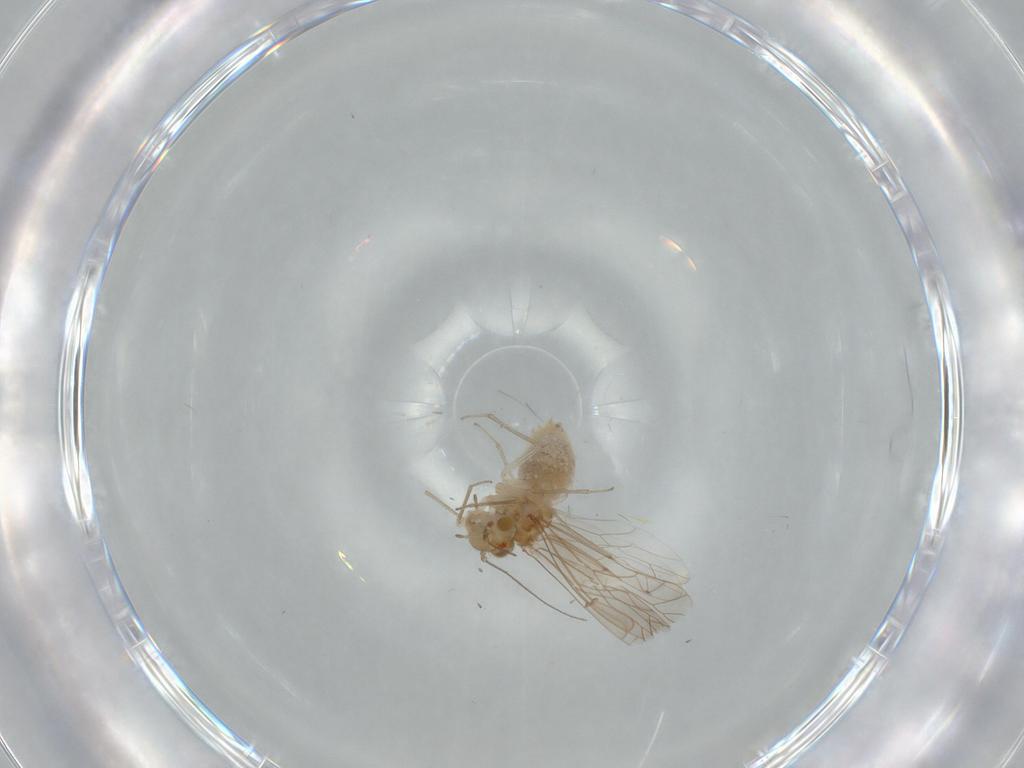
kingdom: Animalia
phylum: Arthropoda
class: Insecta
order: Psocodea
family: Lachesillidae
